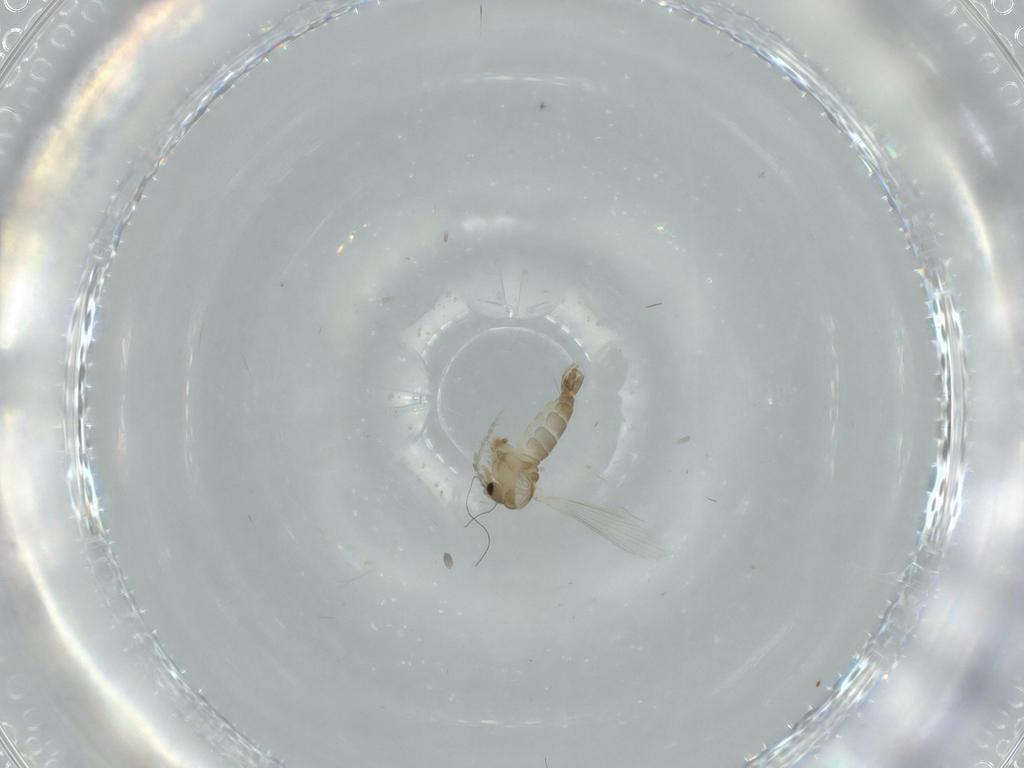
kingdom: Animalia
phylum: Arthropoda
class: Insecta
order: Diptera
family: Psychodidae
